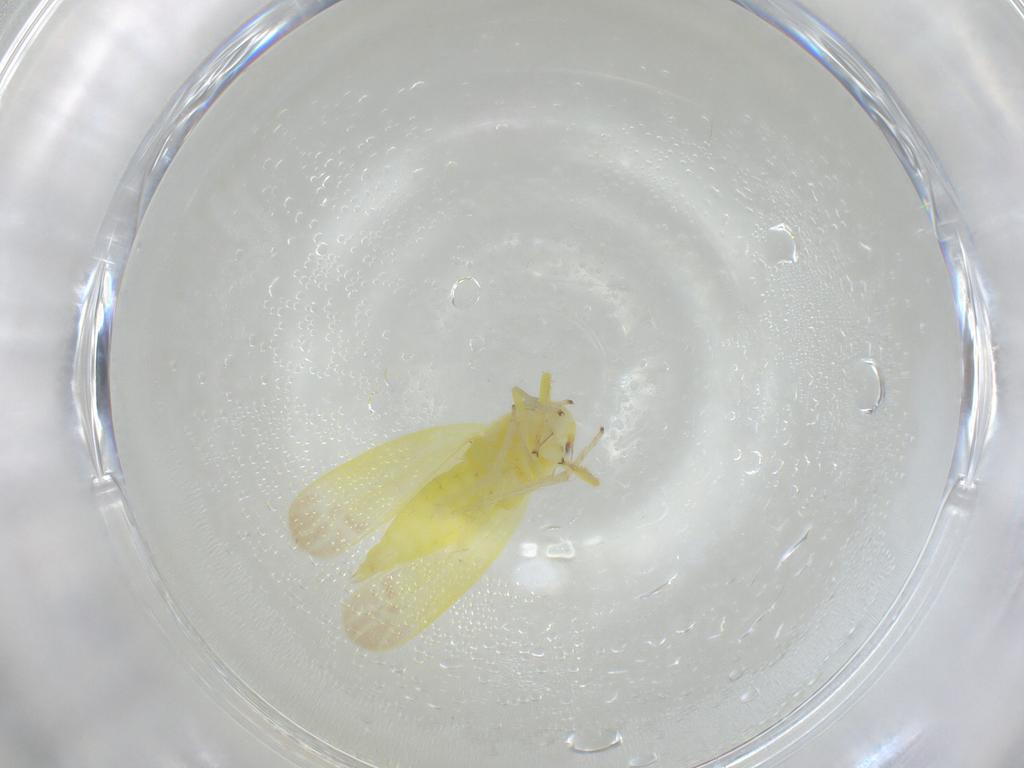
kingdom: Animalia
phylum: Arthropoda
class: Insecta
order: Hemiptera
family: Cicadellidae
